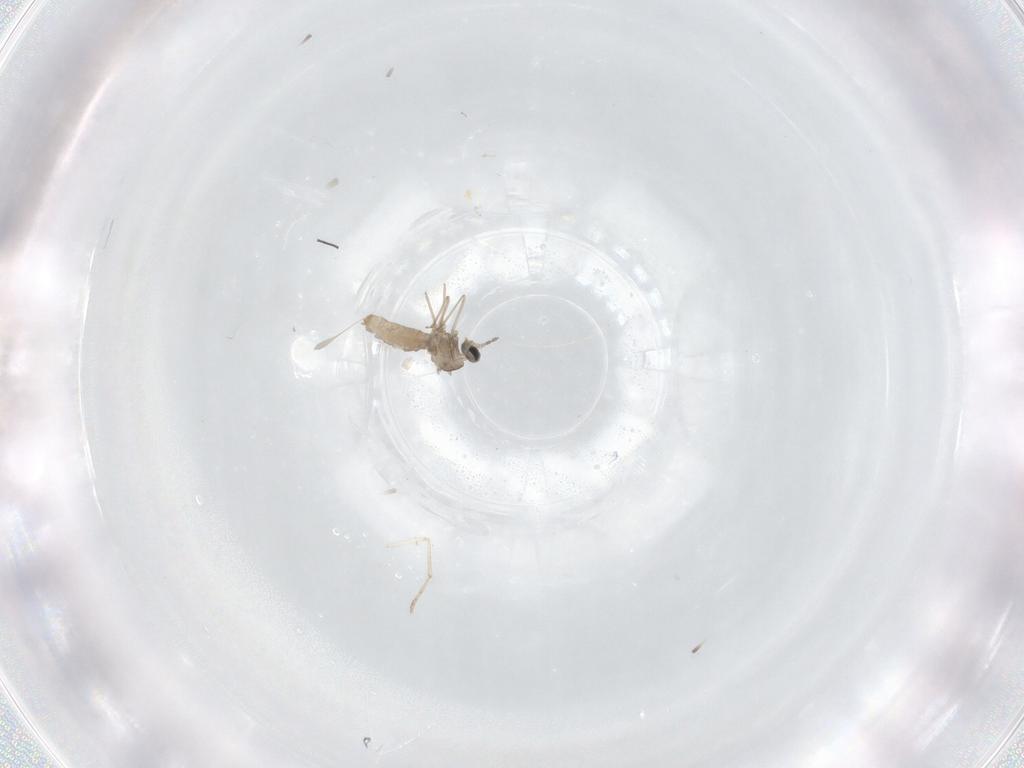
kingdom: Animalia
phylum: Arthropoda
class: Insecta
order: Diptera
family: Cecidomyiidae
